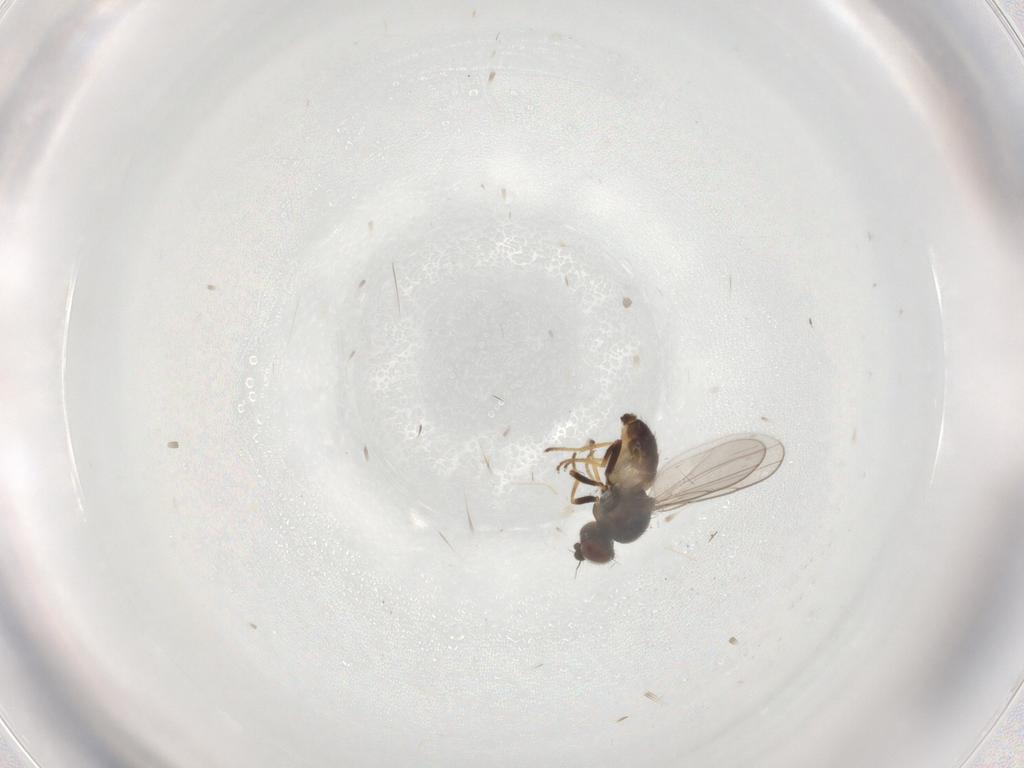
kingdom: Animalia
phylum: Arthropoda
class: Insecta
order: Diptera
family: Chloropidae
